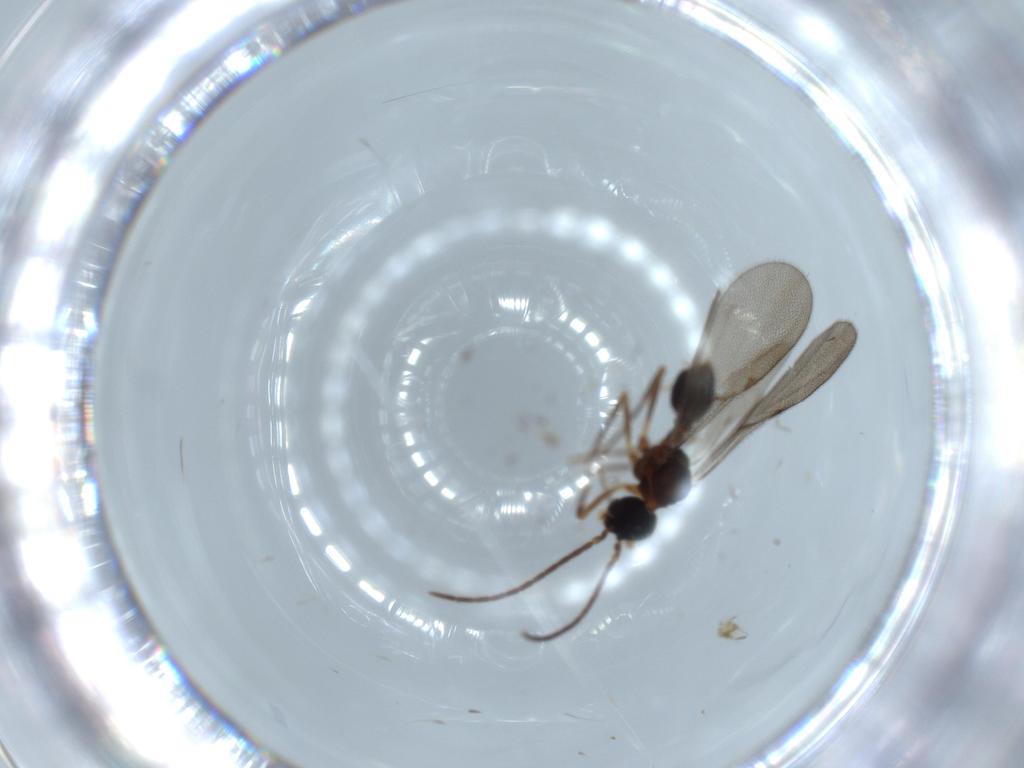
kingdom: Animalia
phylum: Arthropoda
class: Insecta
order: Hymenoptera
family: Formicidae
